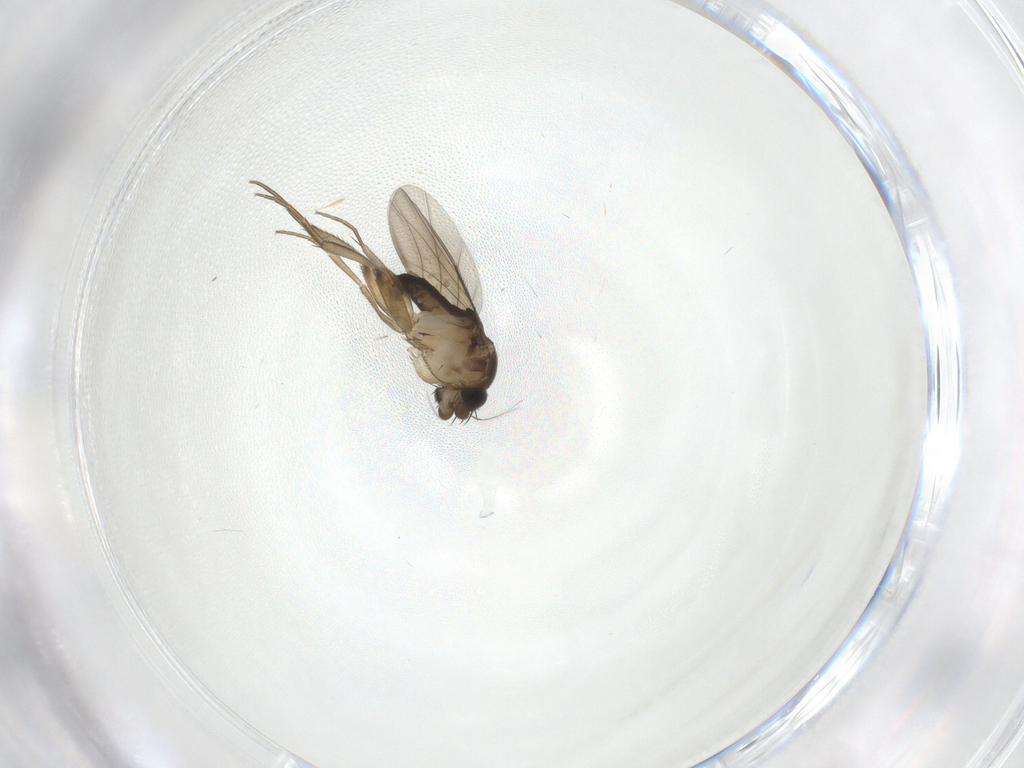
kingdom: Animalia
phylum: Arthropoda
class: Insecta
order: Diptera
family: Phoridae
